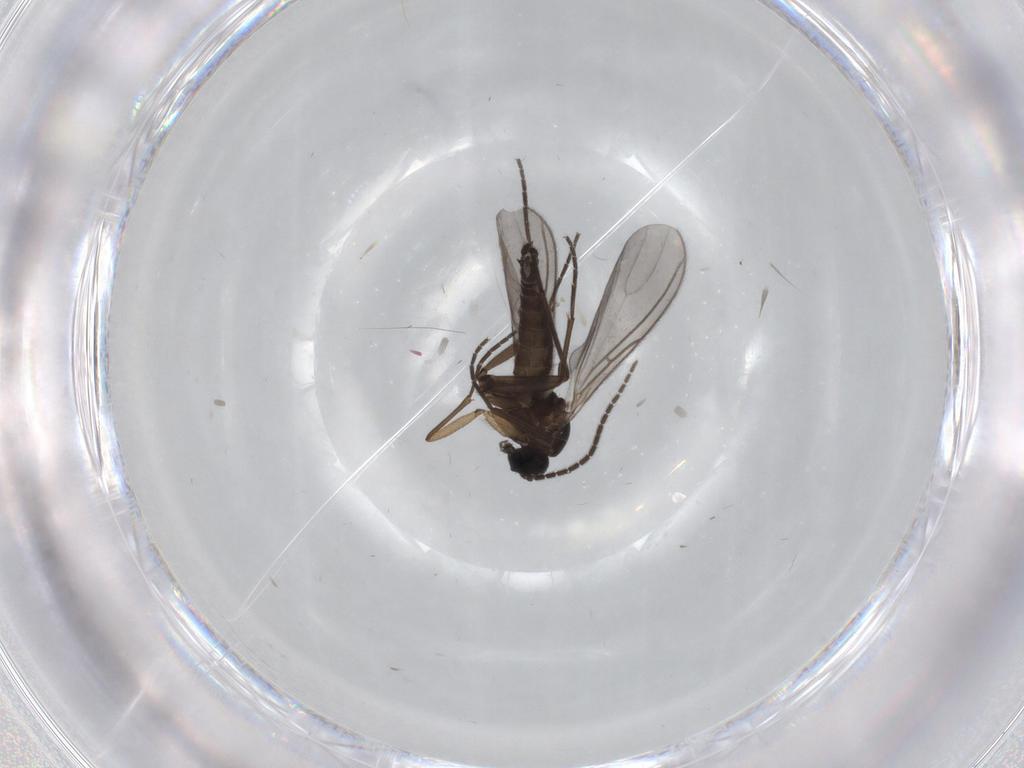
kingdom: Animalia
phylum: Arthropoda
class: Insecta
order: Diptera
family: Sciaridae
